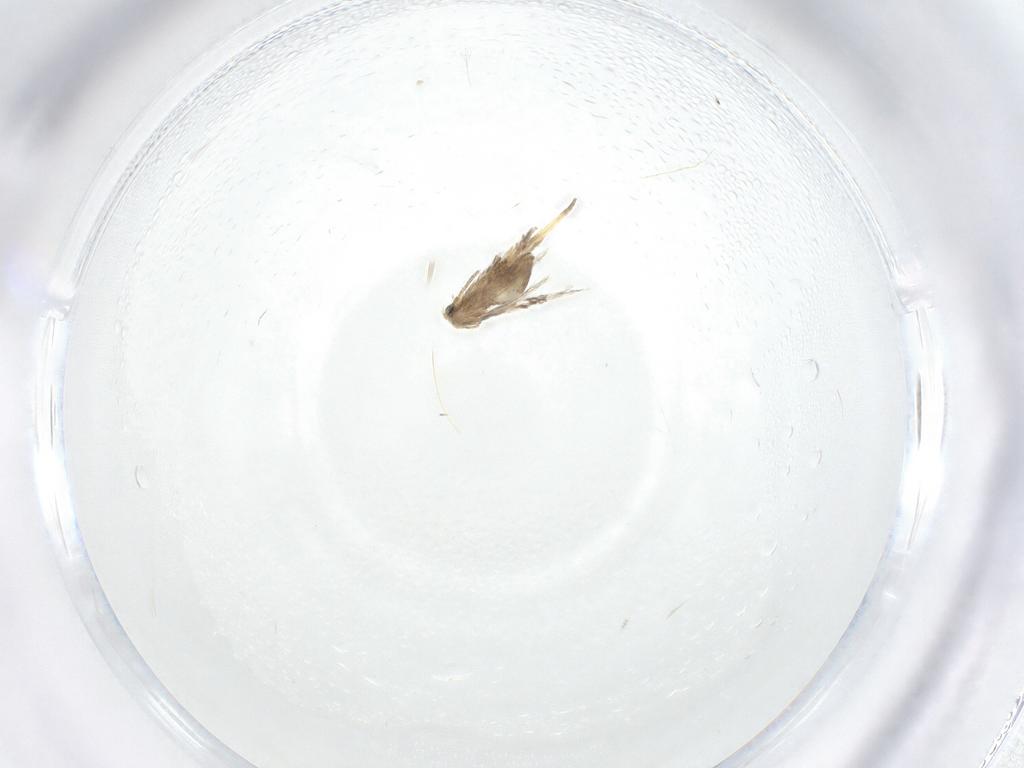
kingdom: Animalia
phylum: Arthropoda
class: Insecta
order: Lepidoptera
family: Nepticulidae
